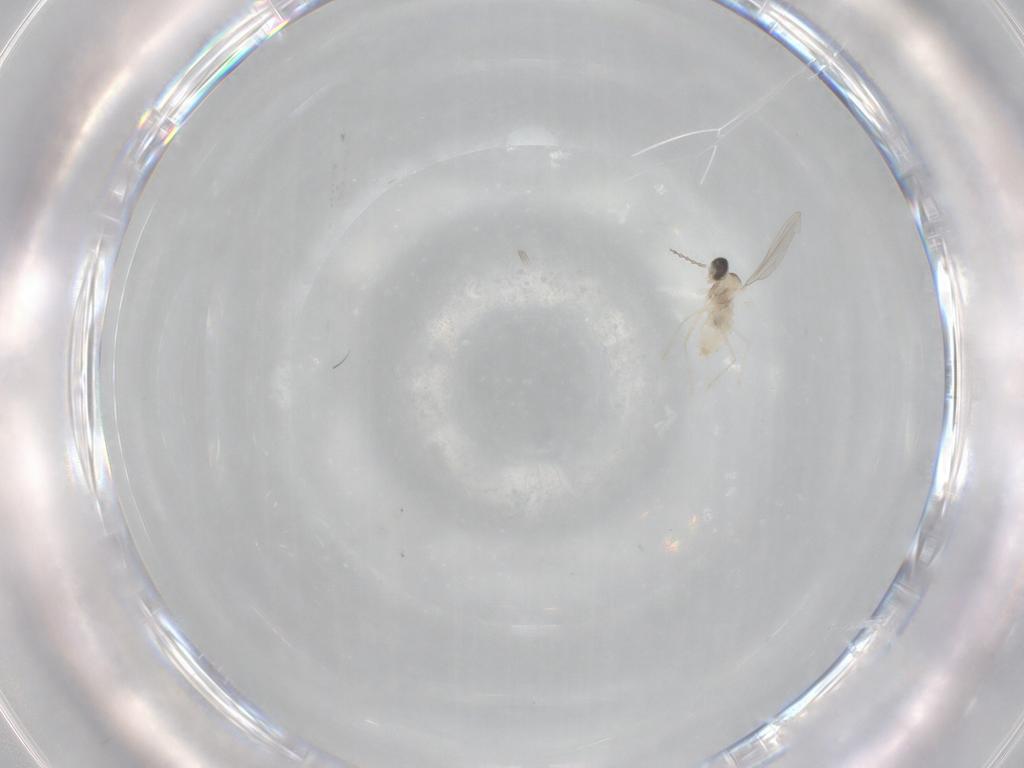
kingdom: Animalia
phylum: Arthropoda
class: Insecta
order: Diptera
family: Cecidomyiidae
